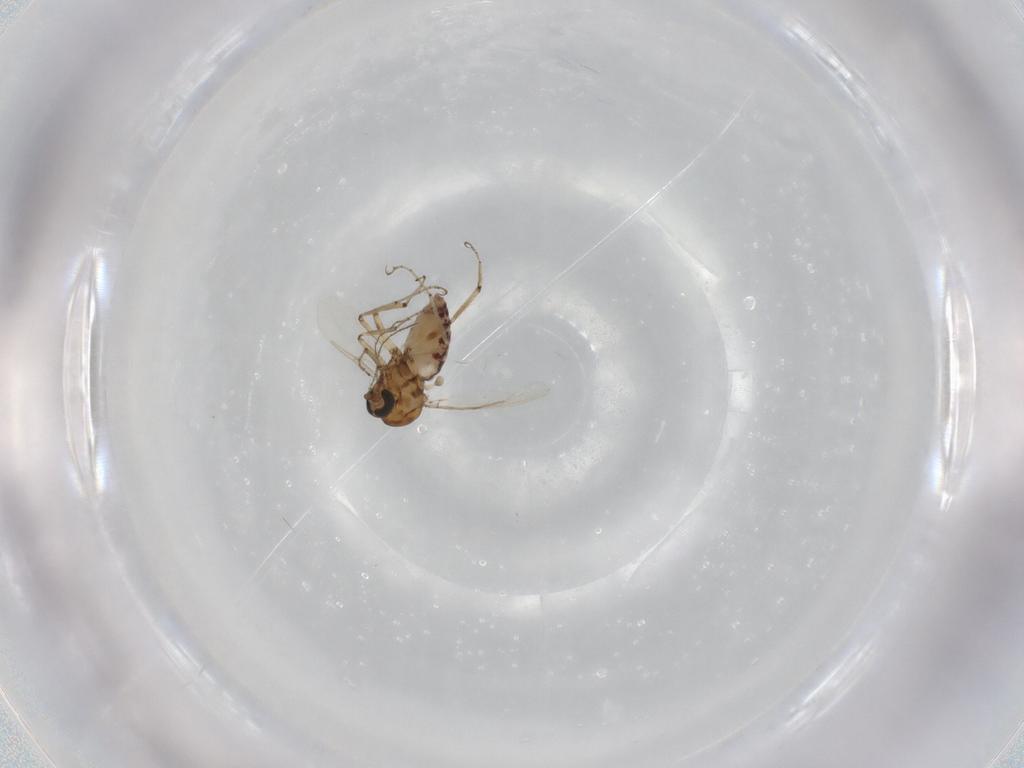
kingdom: Animalia
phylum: Arthropoda
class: Insecta
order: Diptera
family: Ceratopogonidae
